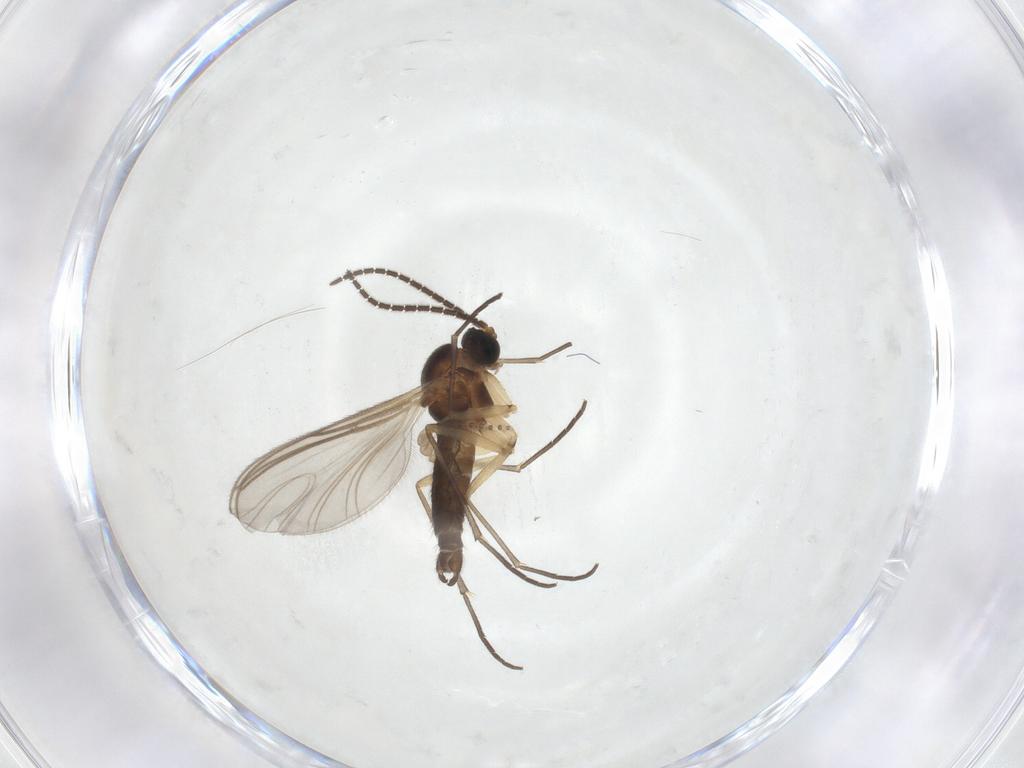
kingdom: Animalia
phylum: Arthropoda
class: Insecta
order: Diptera
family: Sciaridae
